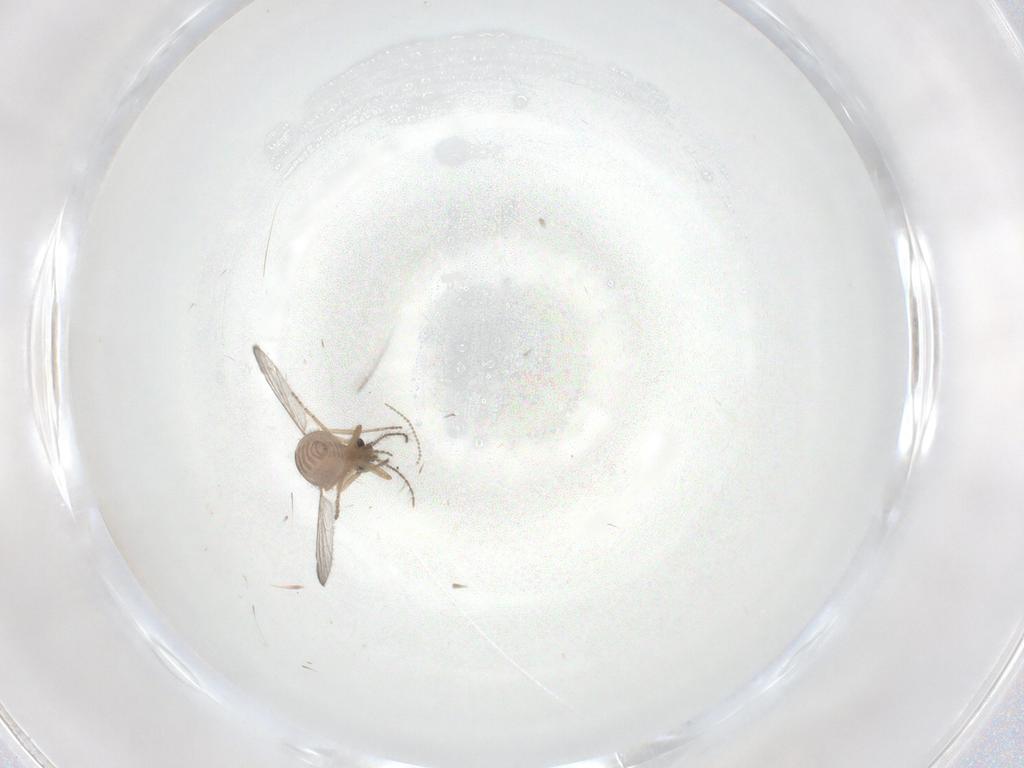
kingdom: Animalia
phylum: Arthropoda
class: Insecta
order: Diptera
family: Ceratopogonidae
